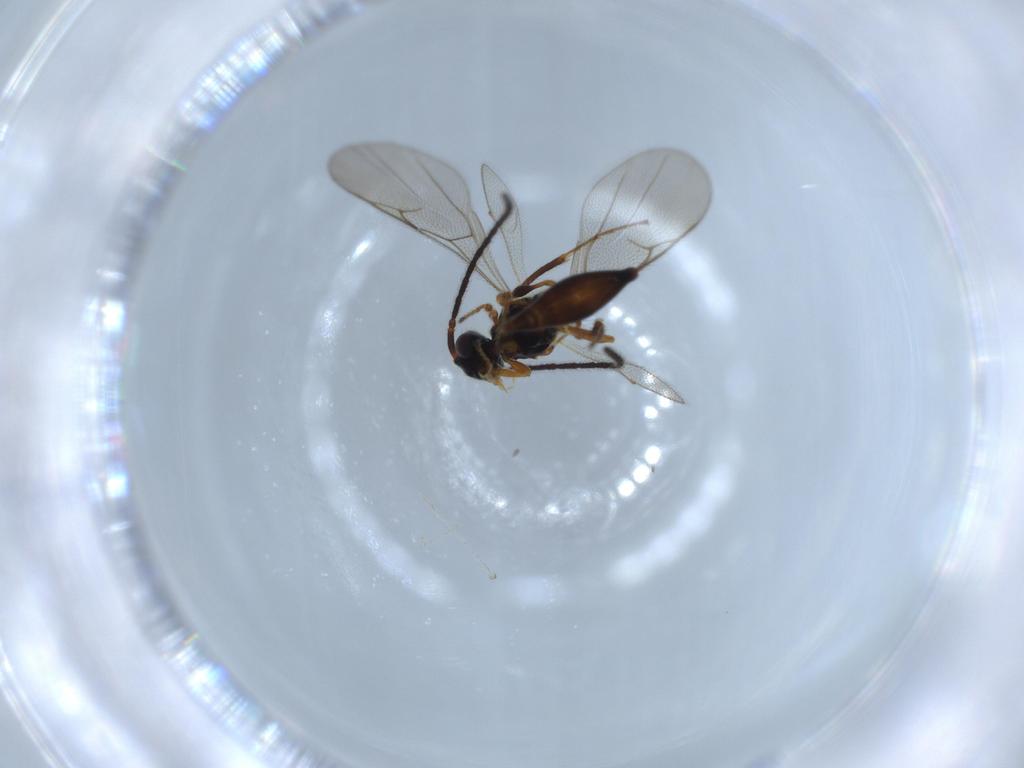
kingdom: Animalia
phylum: Arthropoda
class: Insecta
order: Hymenoptera
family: Diapriidae
